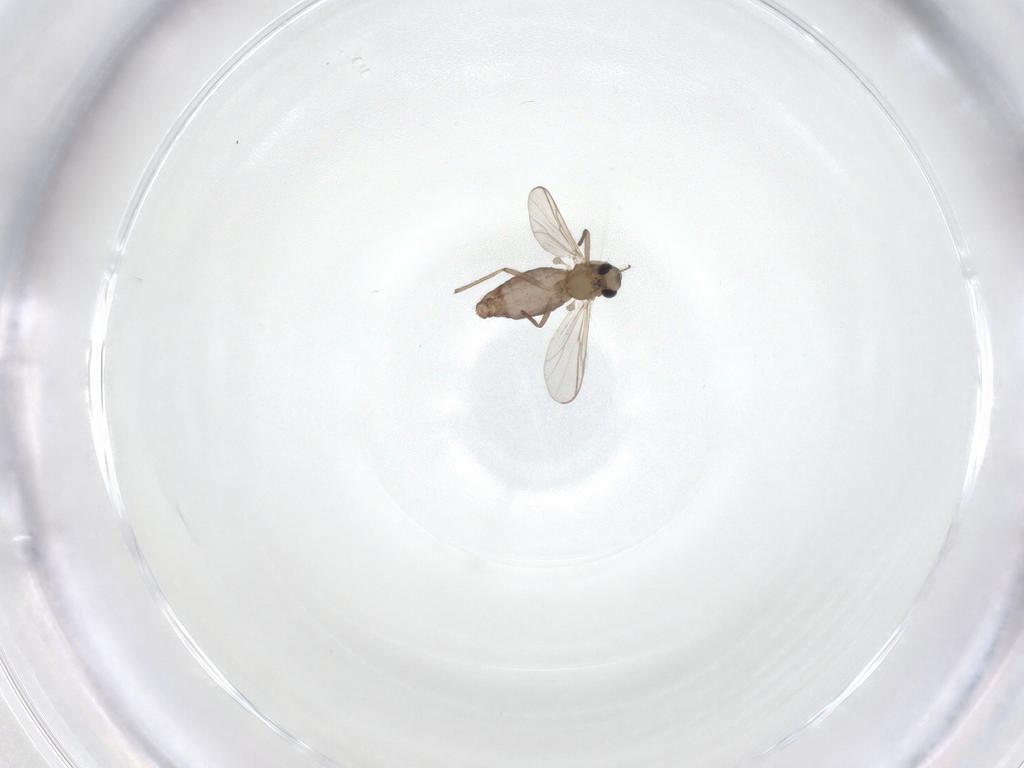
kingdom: Animalia
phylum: Arthropoda
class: Insecta
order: Diptera
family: Chironomidae
